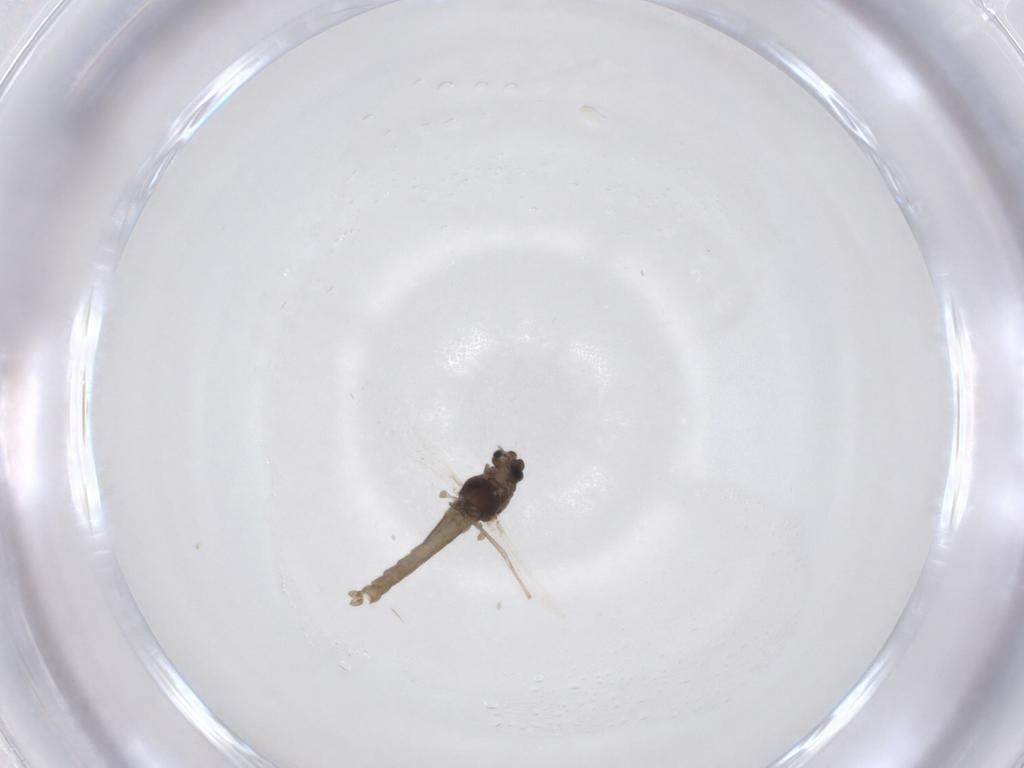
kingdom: Animalia
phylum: Arthropoda
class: Insecta
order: Diptera
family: Chironomidae
